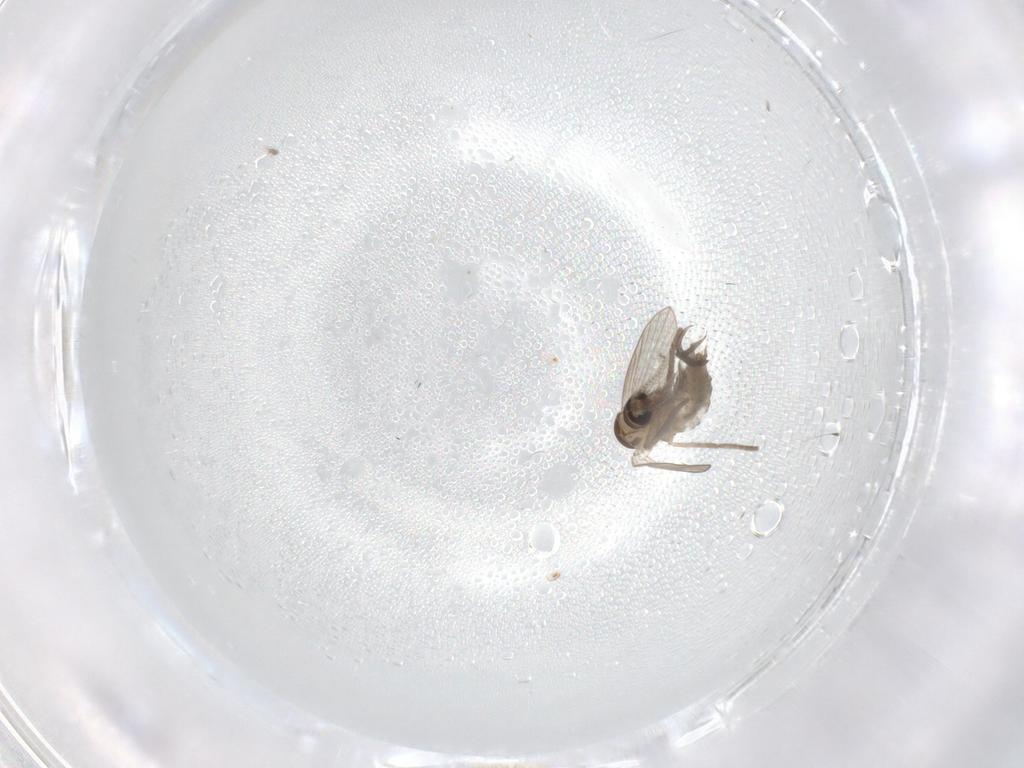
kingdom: Animalia
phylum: Arthropoda
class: Insecta
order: Diptera
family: Psychodidae
